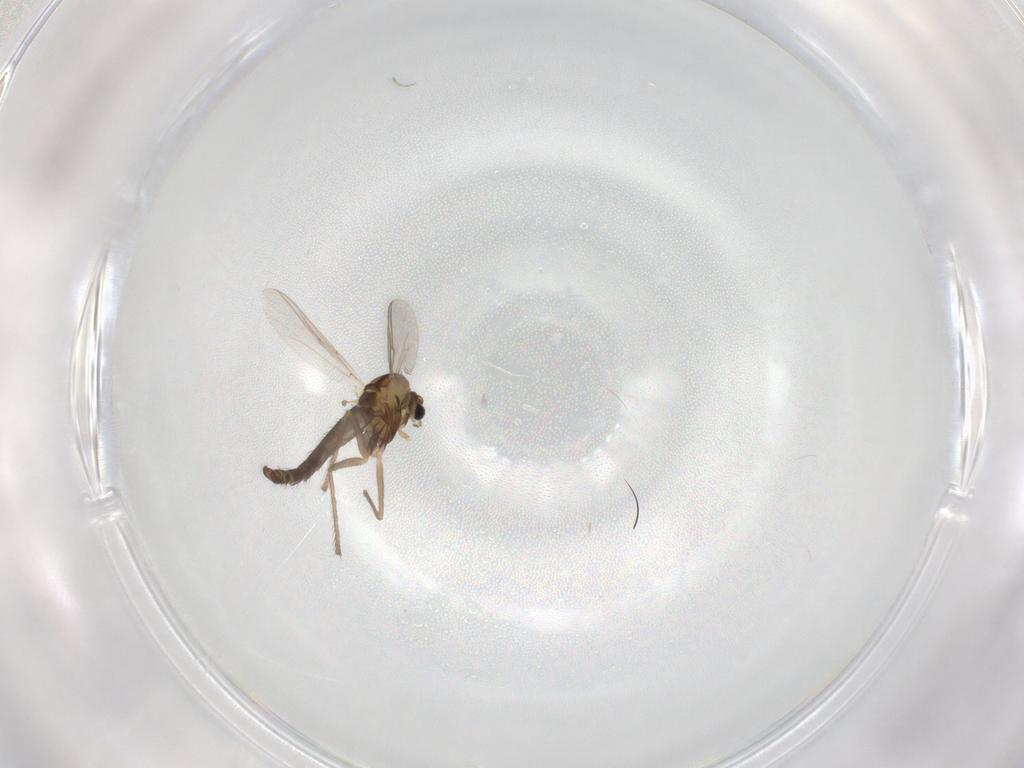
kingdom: Animalia
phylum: Arthropoda
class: Insecta
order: Diptera
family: Chironomidae
